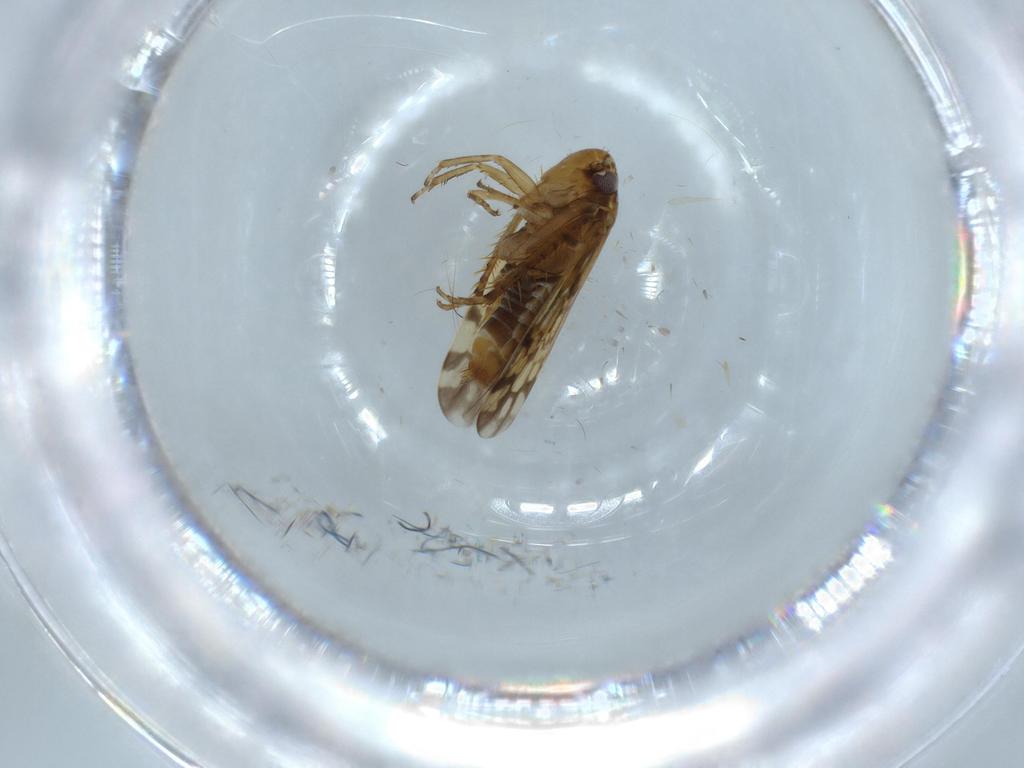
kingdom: Animalia
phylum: Arthropoda
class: Insecta
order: Hemiptera
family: Cicadellidae
